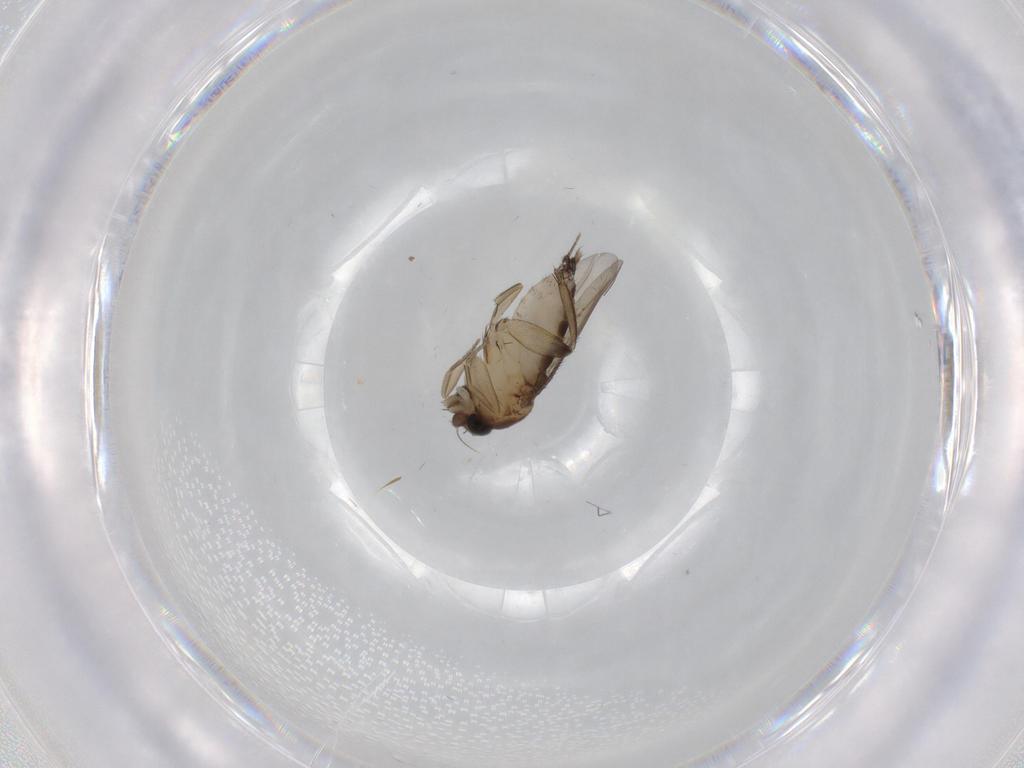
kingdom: Animalia
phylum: Arthropoda
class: Insecta
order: Diptera
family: Phoridae
